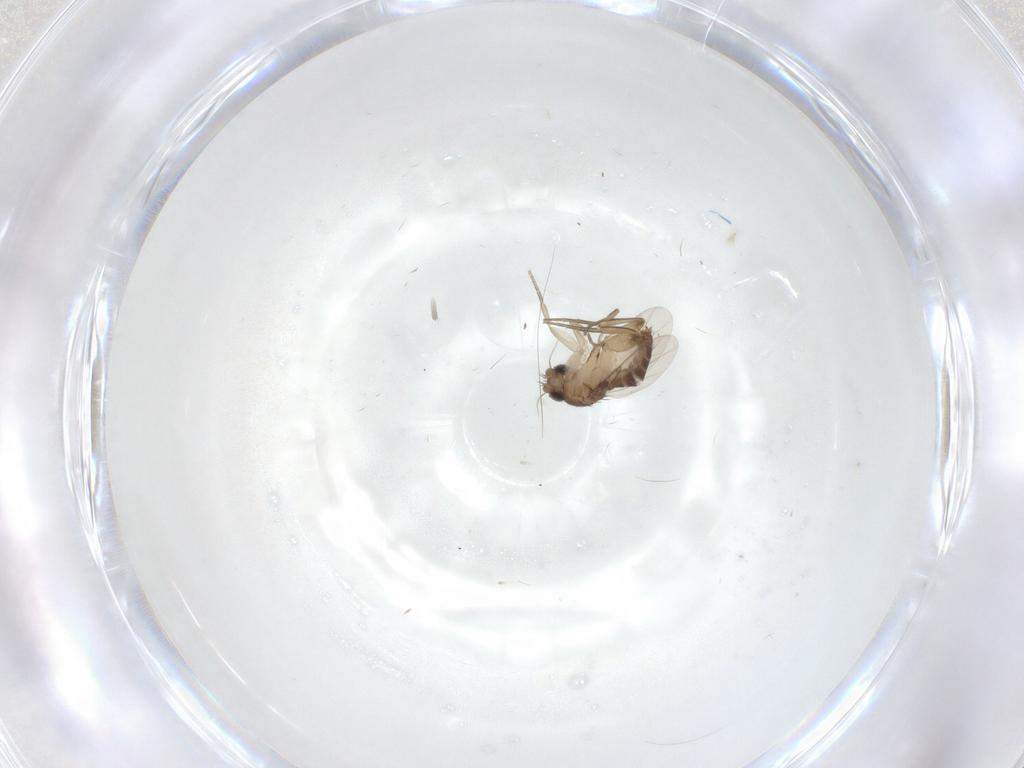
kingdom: Animalia
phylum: Arthropoda
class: Insecta
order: Diptera
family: Phoridae
